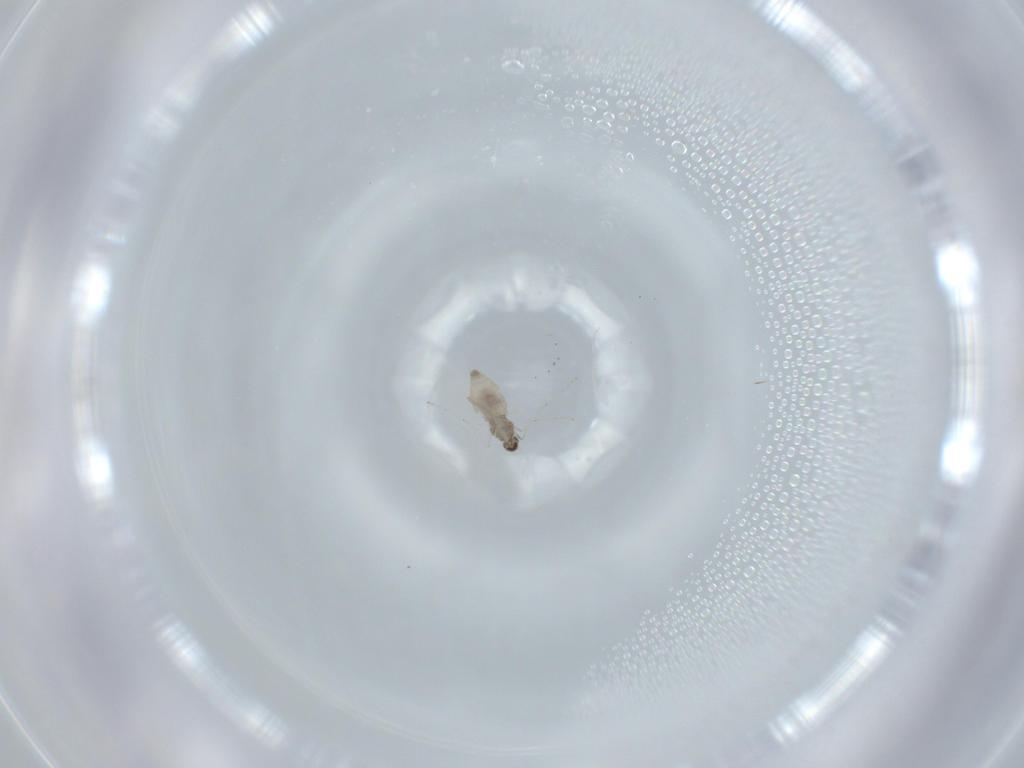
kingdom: Animalia
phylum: Arthropoda
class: Insecta
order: Diptera
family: Cecidomyiidae
